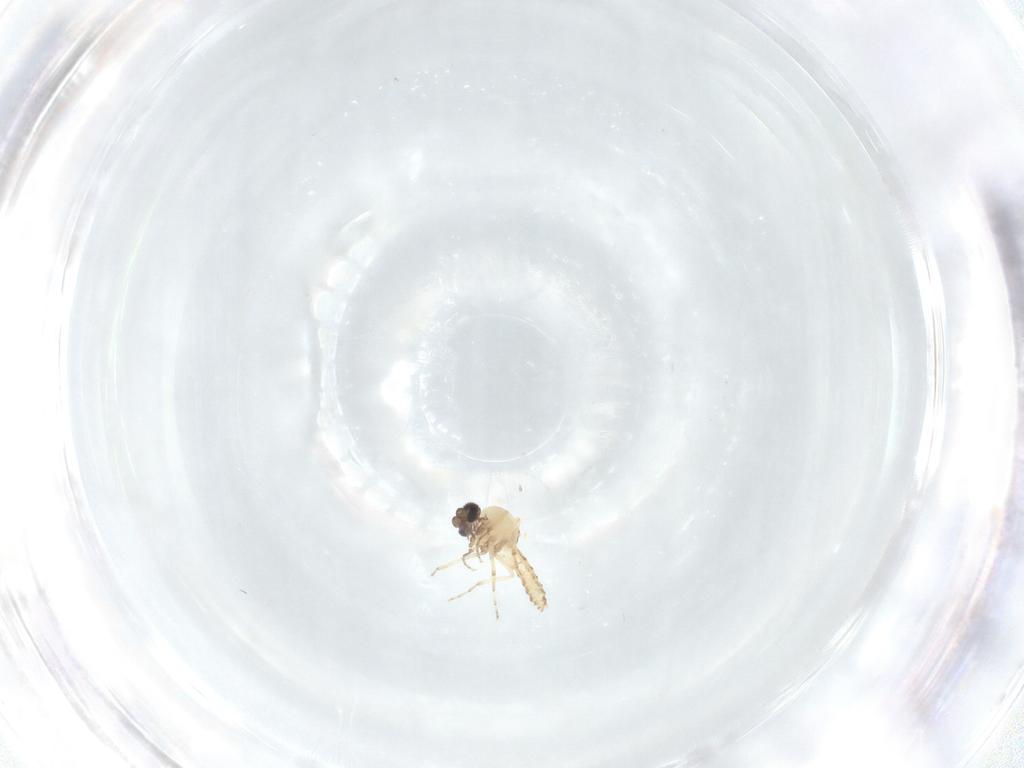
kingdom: Animalia
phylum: Arthropoda
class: Insecta
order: Diptera
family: Ceratopogonidae
